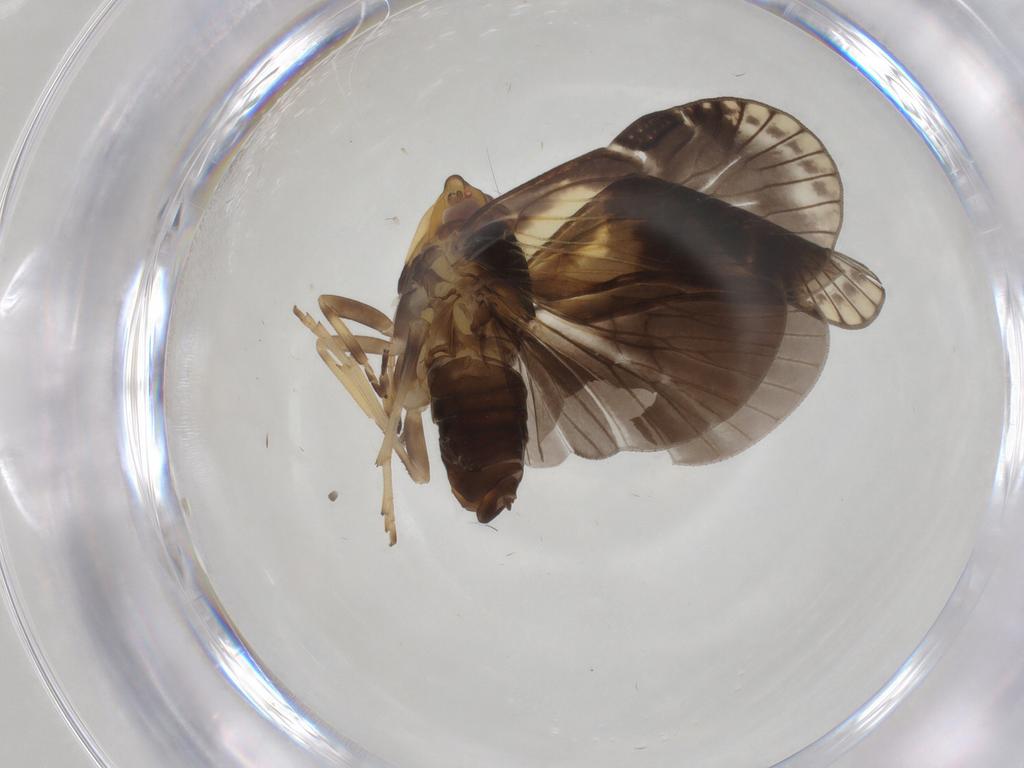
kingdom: Animalia
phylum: Arthropoda
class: Insecta
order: Hemiptera
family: Cixiidae
